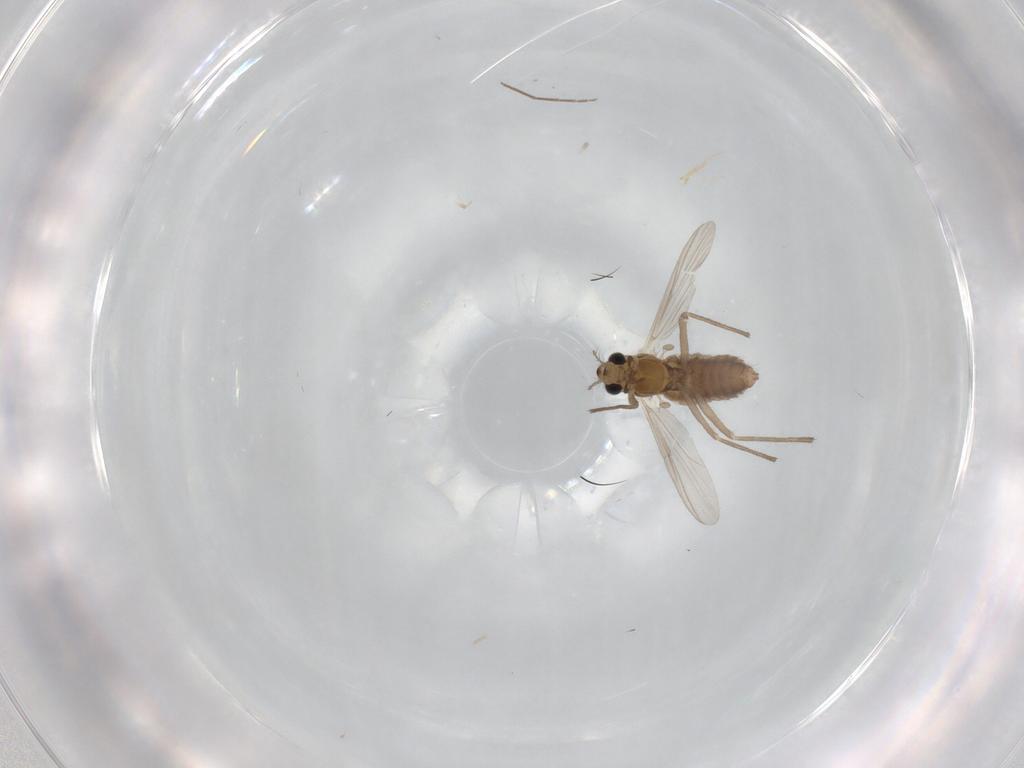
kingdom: Animalia
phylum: Arthropoda
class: Insecta
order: Diptera
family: Chironomidae
